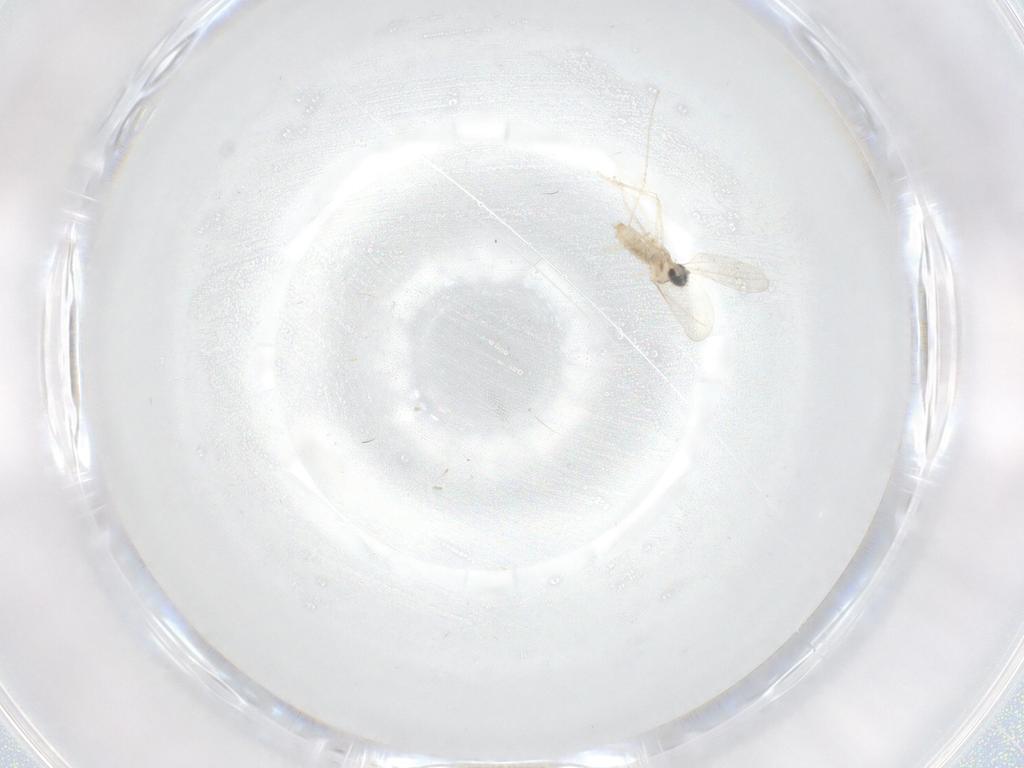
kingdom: Animalia
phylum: Arthropoda
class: Insecta
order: Diptera
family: Cecidomyiidae
